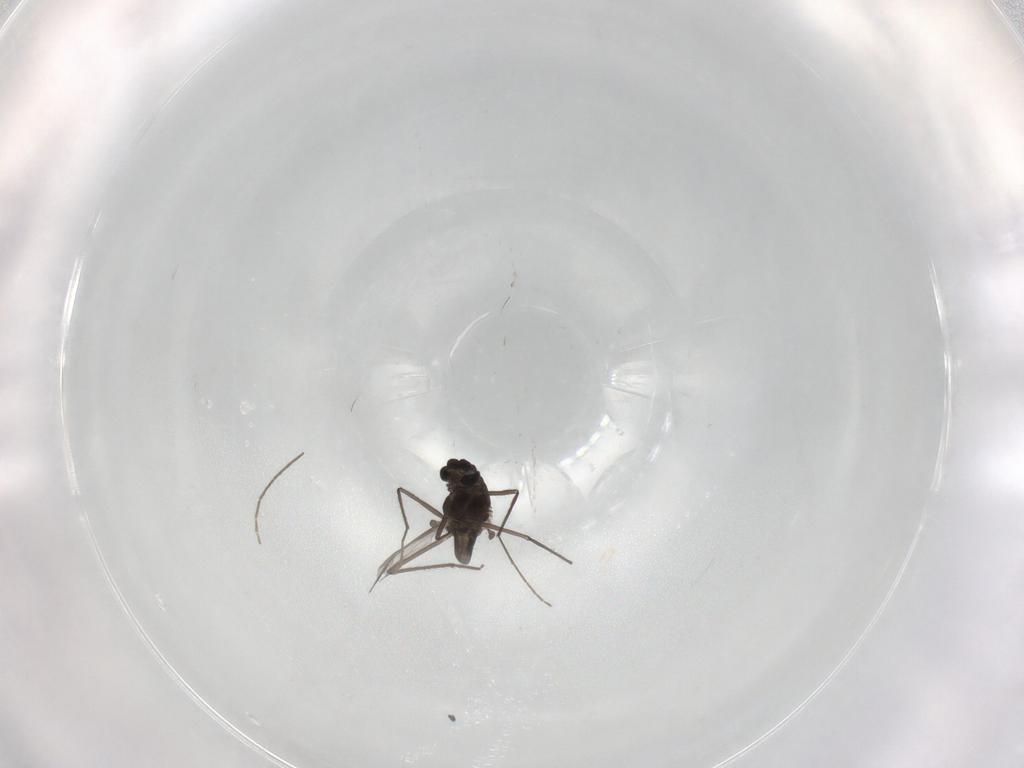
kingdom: Animalia
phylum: Arthropoda
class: Insecta
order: Diptera
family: Chironomidae
